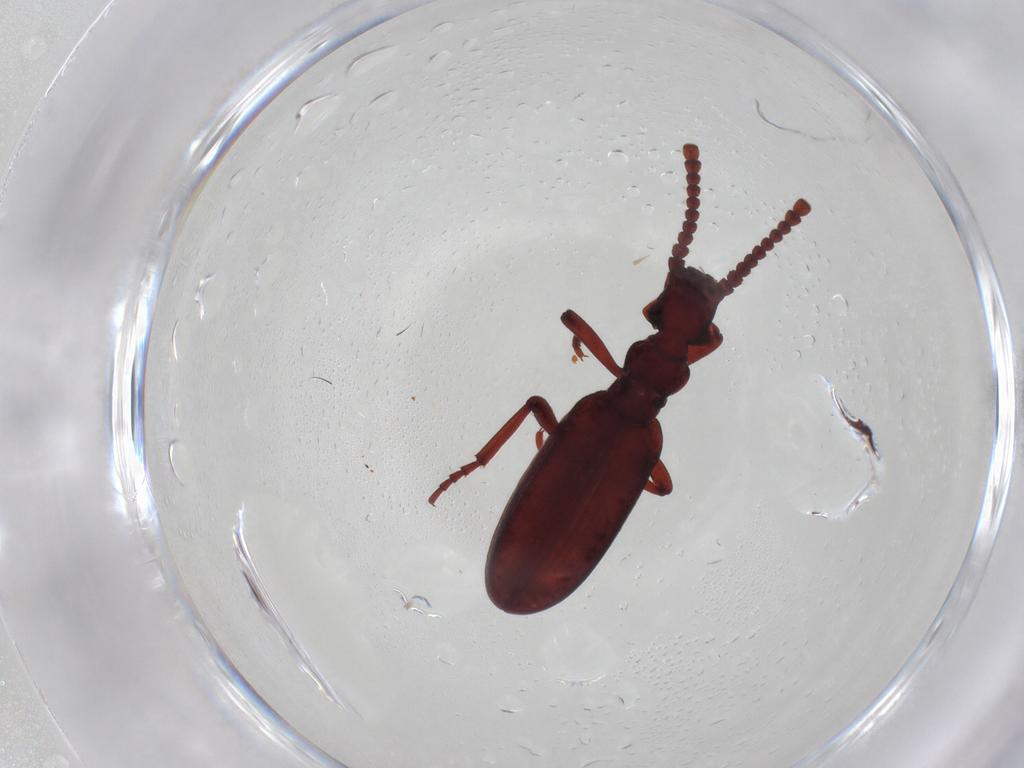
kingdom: Animalia
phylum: Arthropoda
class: Insecta
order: Coleoptera
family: Anthicidae
